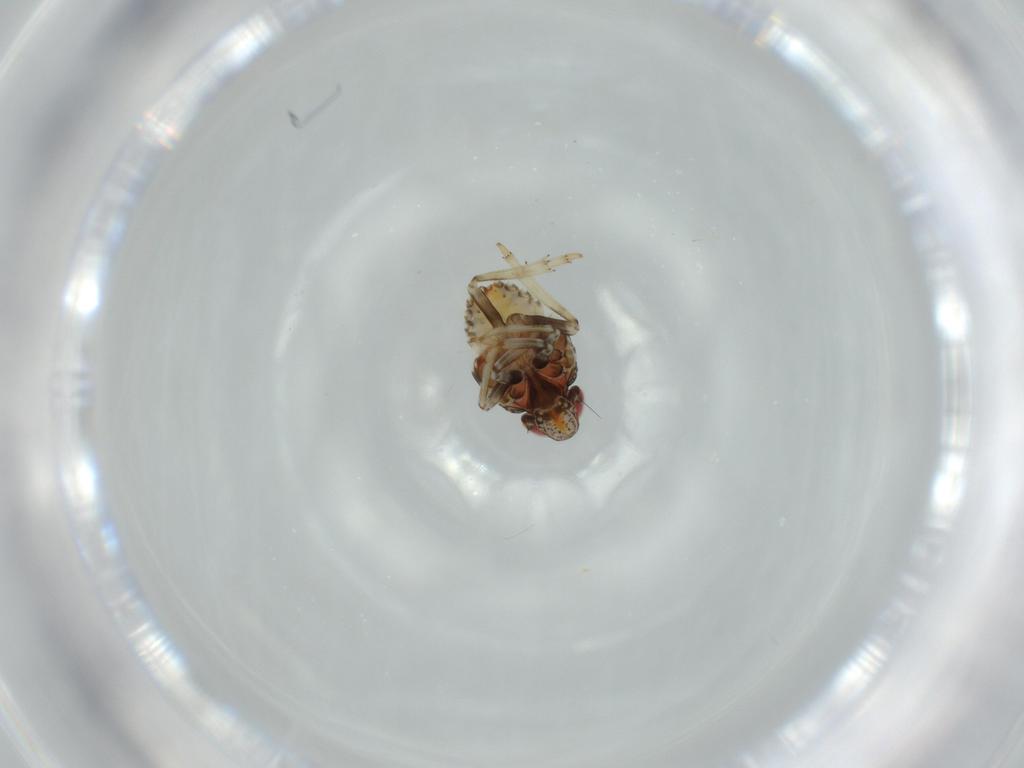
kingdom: Animalia
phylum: Arthropoda
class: Insecta
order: Hemiptera
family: Issidae
